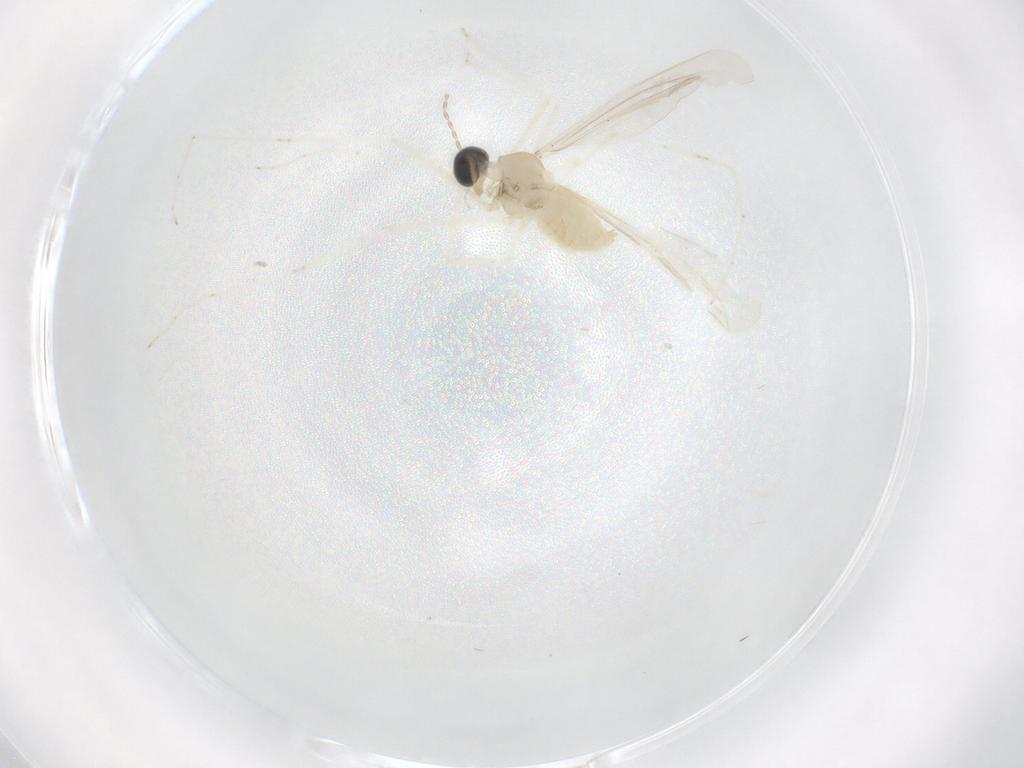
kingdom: Animalia
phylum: Arthropoda
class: Insecta
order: Diptera
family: Cecidomyiidae
